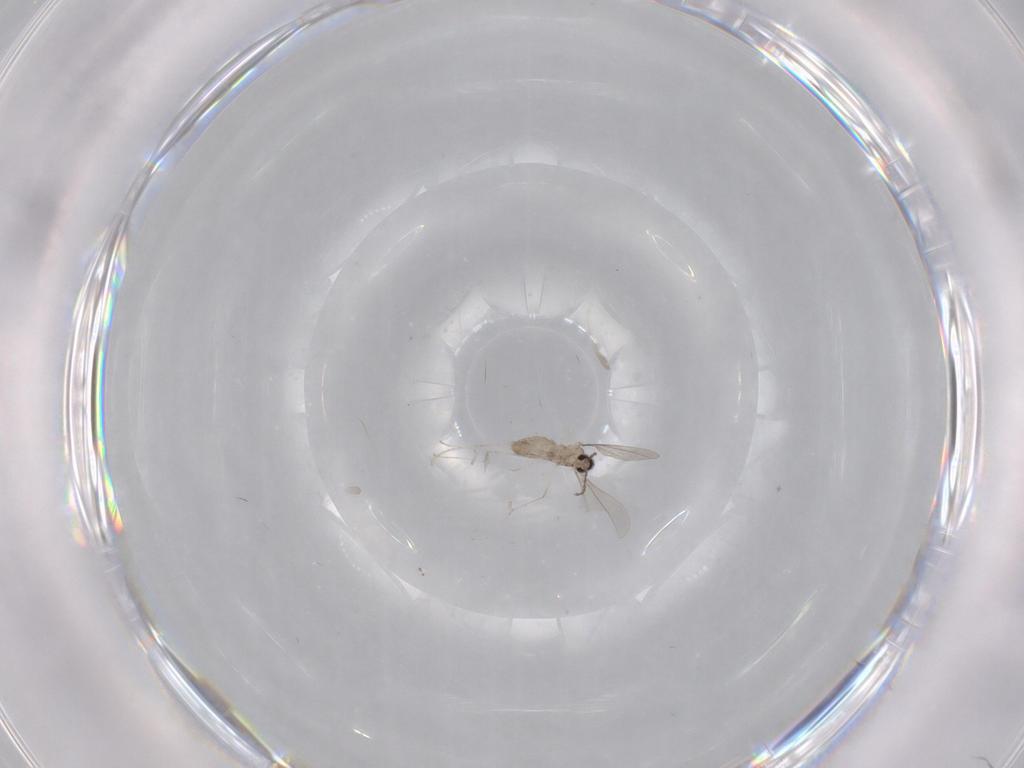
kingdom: Animalia
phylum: Arthropoda
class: Insecta
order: Diptera
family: Cecidomyiidae
